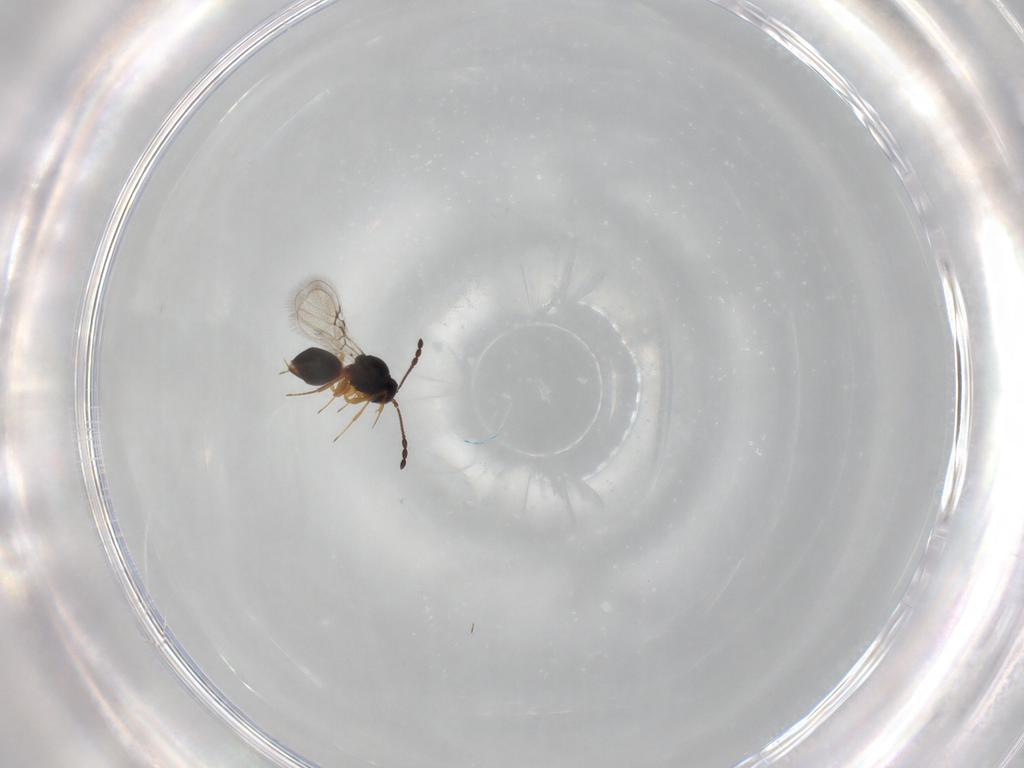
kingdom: Animalia
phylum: Arthropoda
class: Insecta
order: Hymenoptera
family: Figitidae
